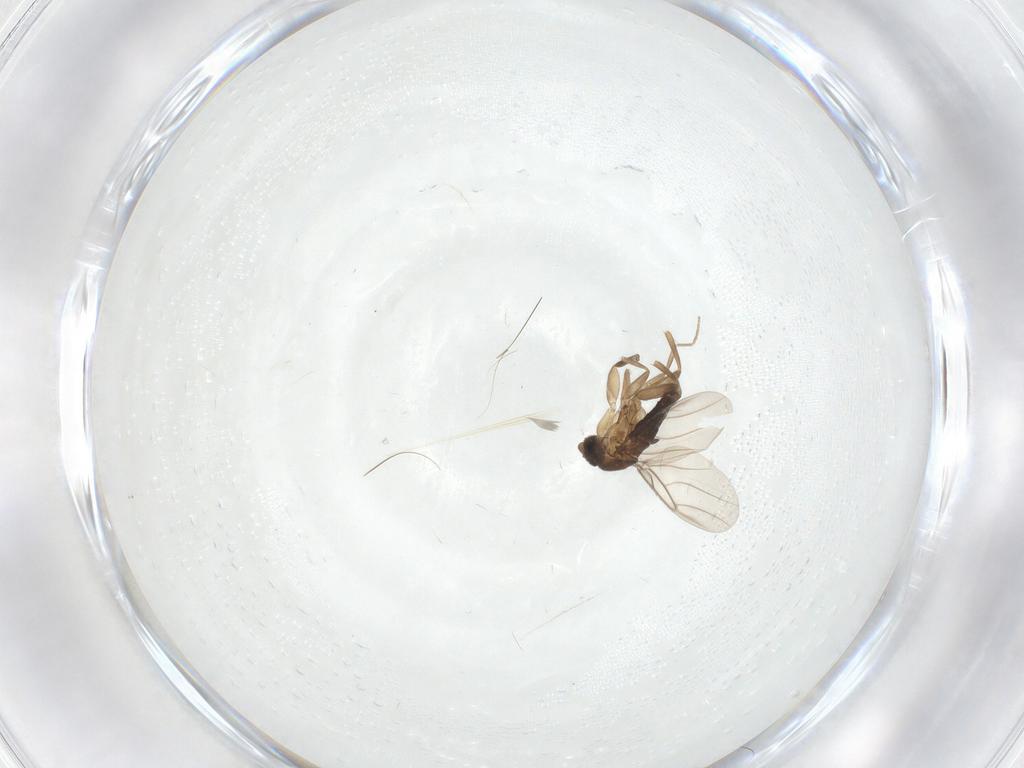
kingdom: Animalia
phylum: Arthropoda
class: Insecta
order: Diptera
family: Phoridae
